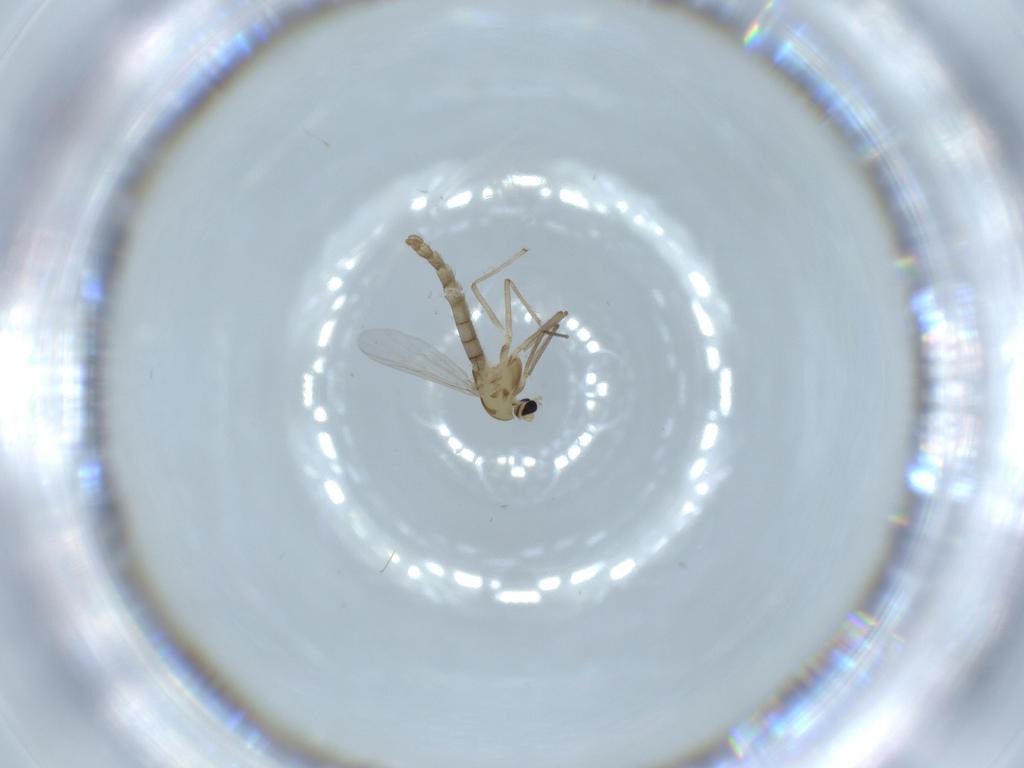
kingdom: Animalia
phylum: Arthropoda
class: Insecta
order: Diptera
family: Chironomidae
